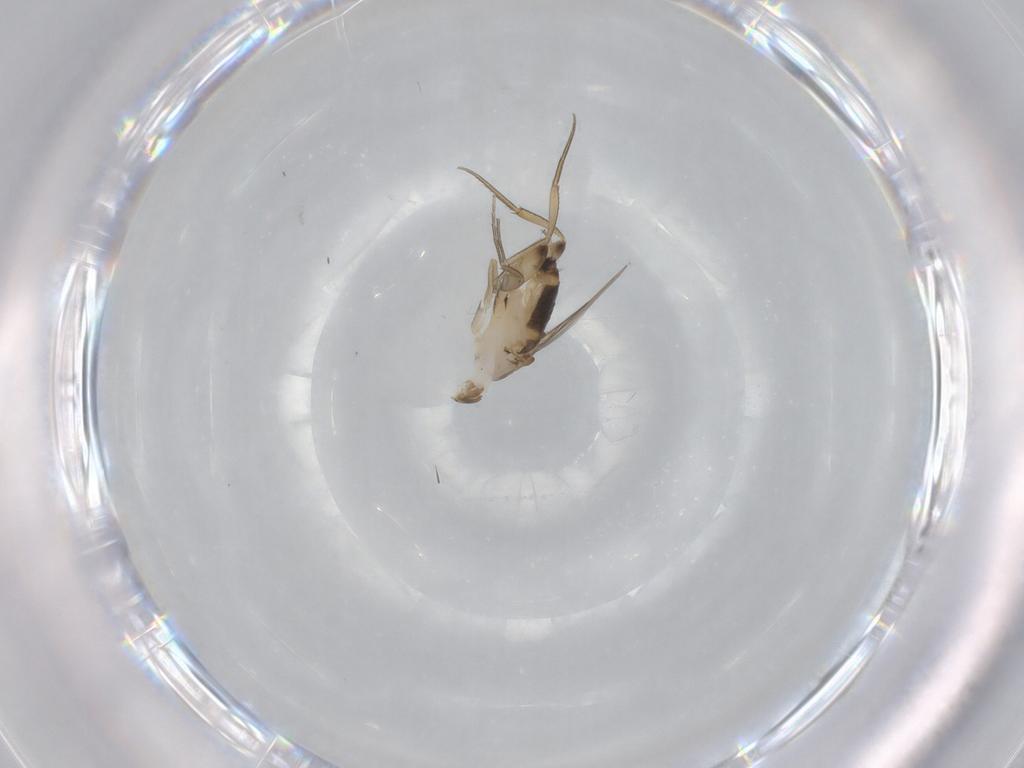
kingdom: Animalia
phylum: Arthropoda
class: Insecta
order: Diptera
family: Phoridae
